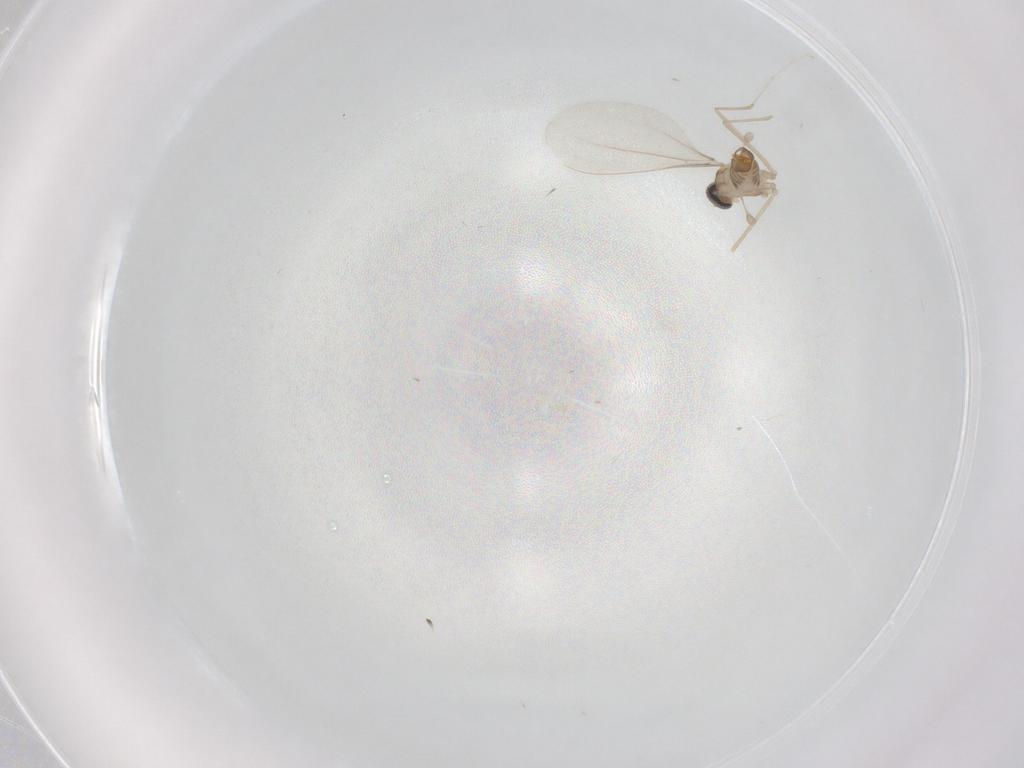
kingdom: Animalia
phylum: Arthropoda
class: Insecta
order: Diptera
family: Cecidomyiidae
